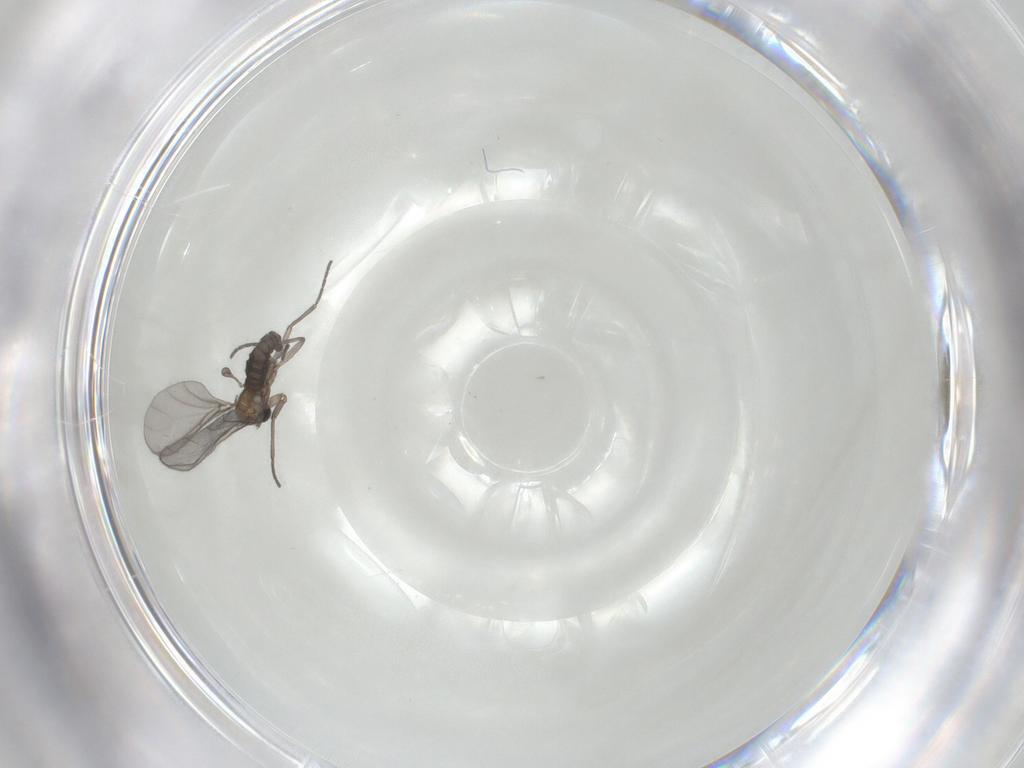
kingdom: Animalia
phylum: Arthropoda
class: Insecta
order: Diptera
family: Sciaridae
